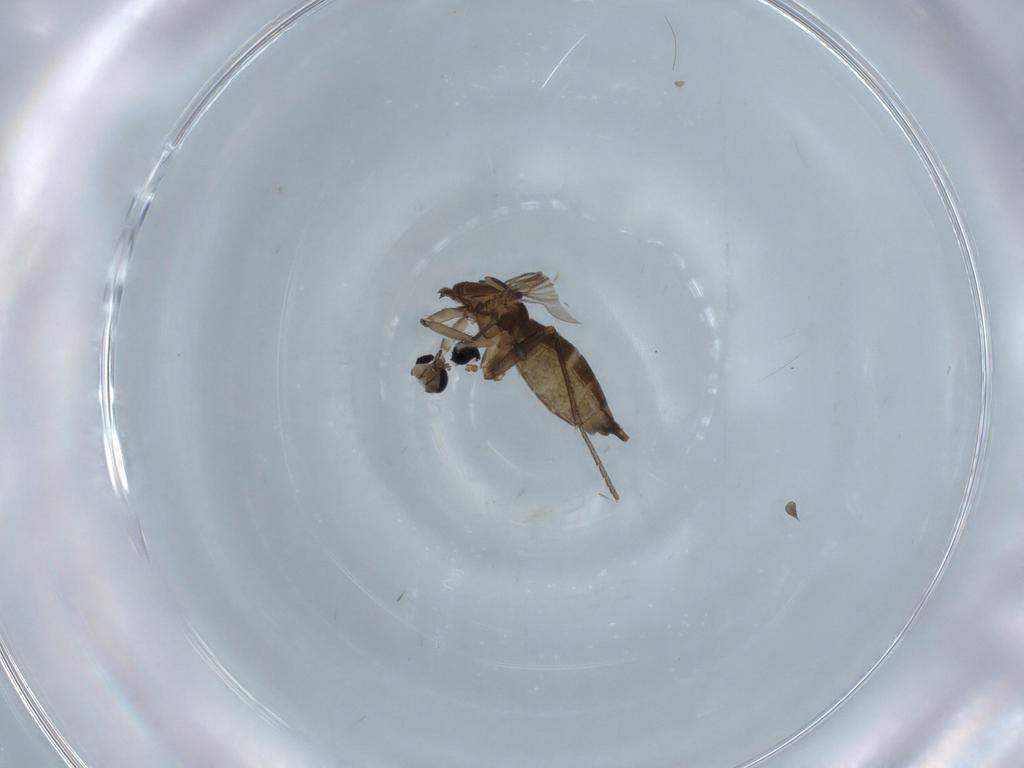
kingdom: Animalia
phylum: Arthropoda
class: Insecta
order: Diptera
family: Sciaridae
